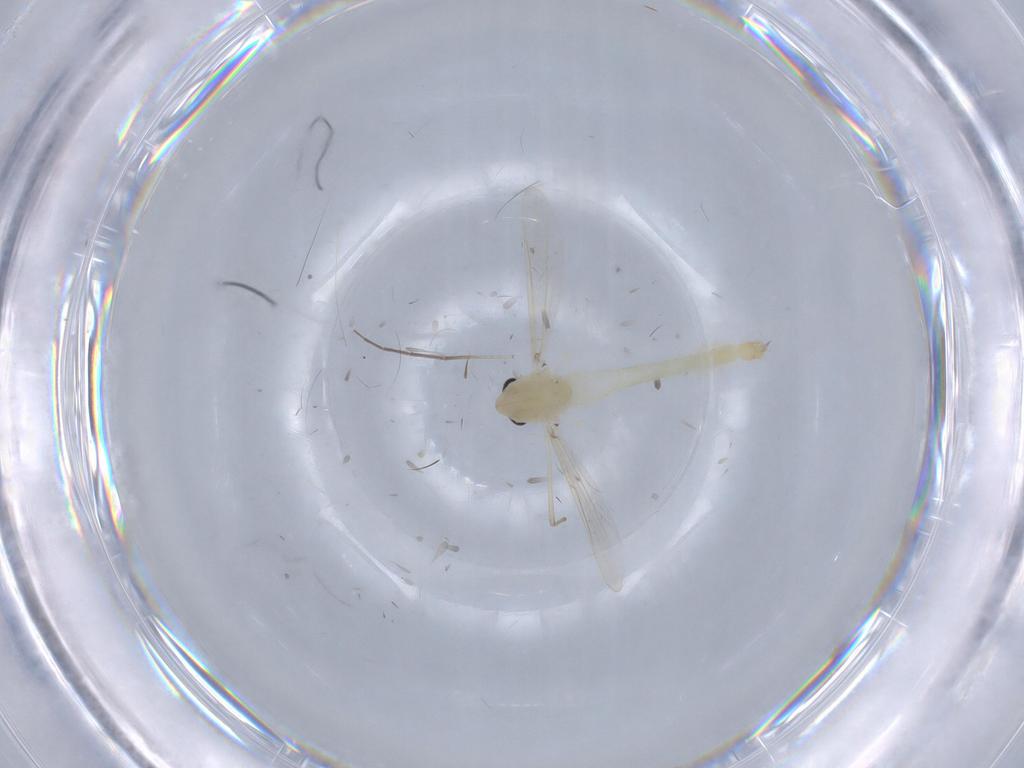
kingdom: Animalia
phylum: Arthropoda
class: Insecta
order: Diptera
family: Chironomidae
